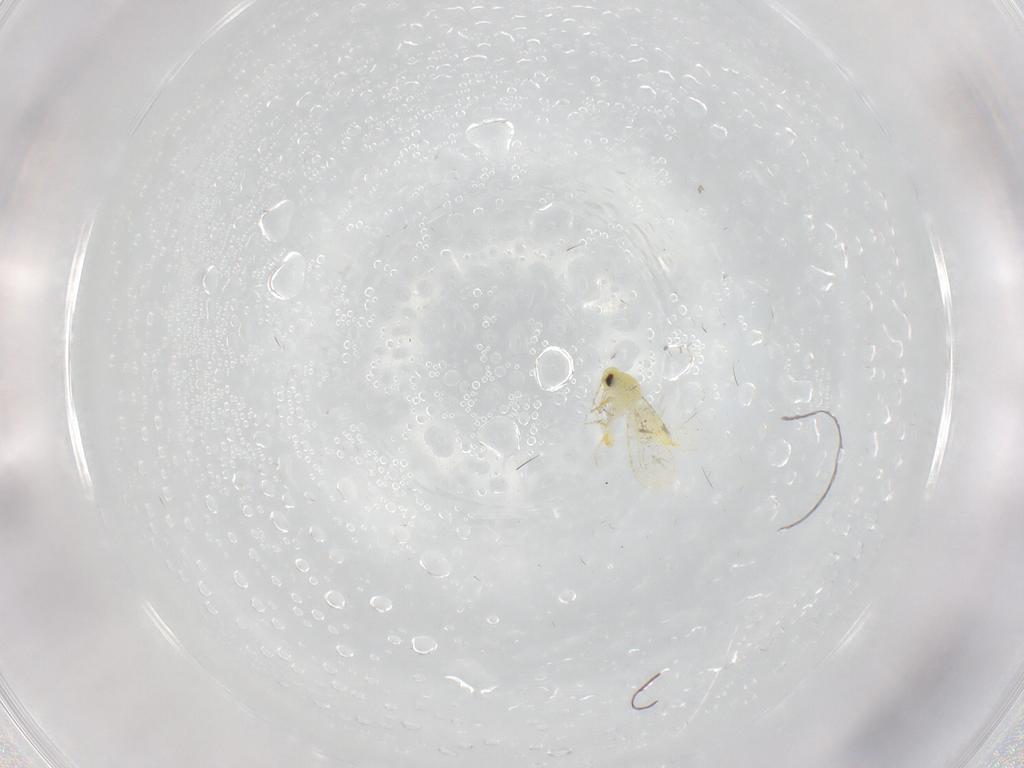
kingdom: Animalia
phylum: Arthropoda
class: Insecta
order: Hemiptera
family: Aleyrodidae
